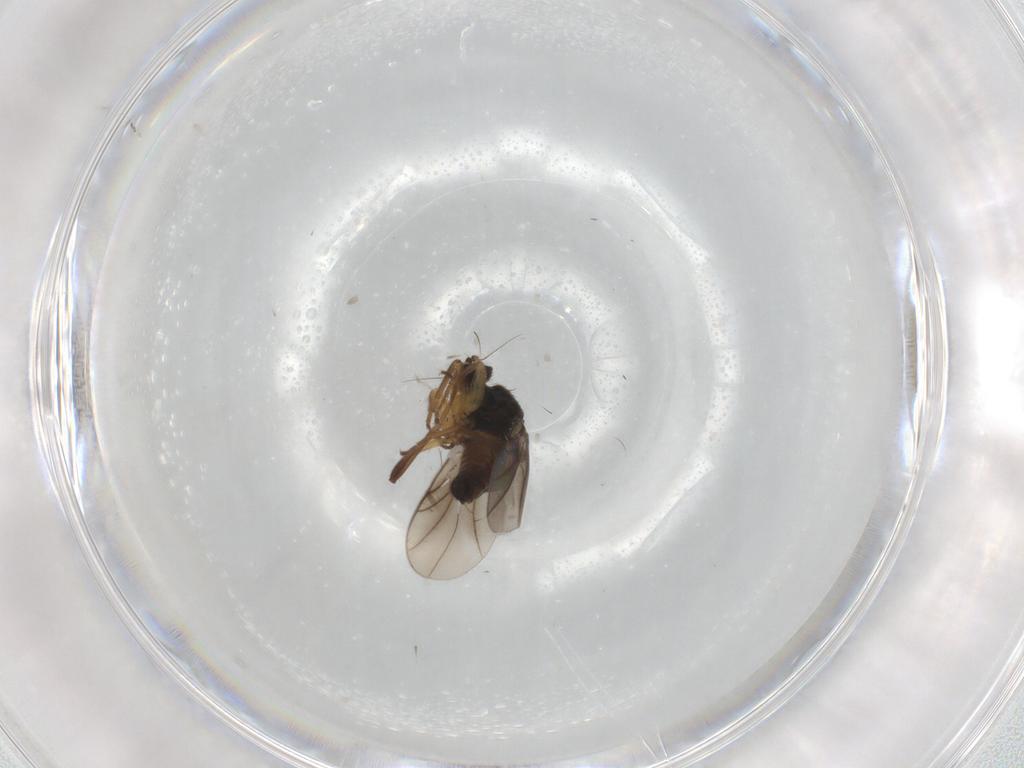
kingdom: Animalia
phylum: Arthropoda
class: Insecta
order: Diptera
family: Hybotidae
